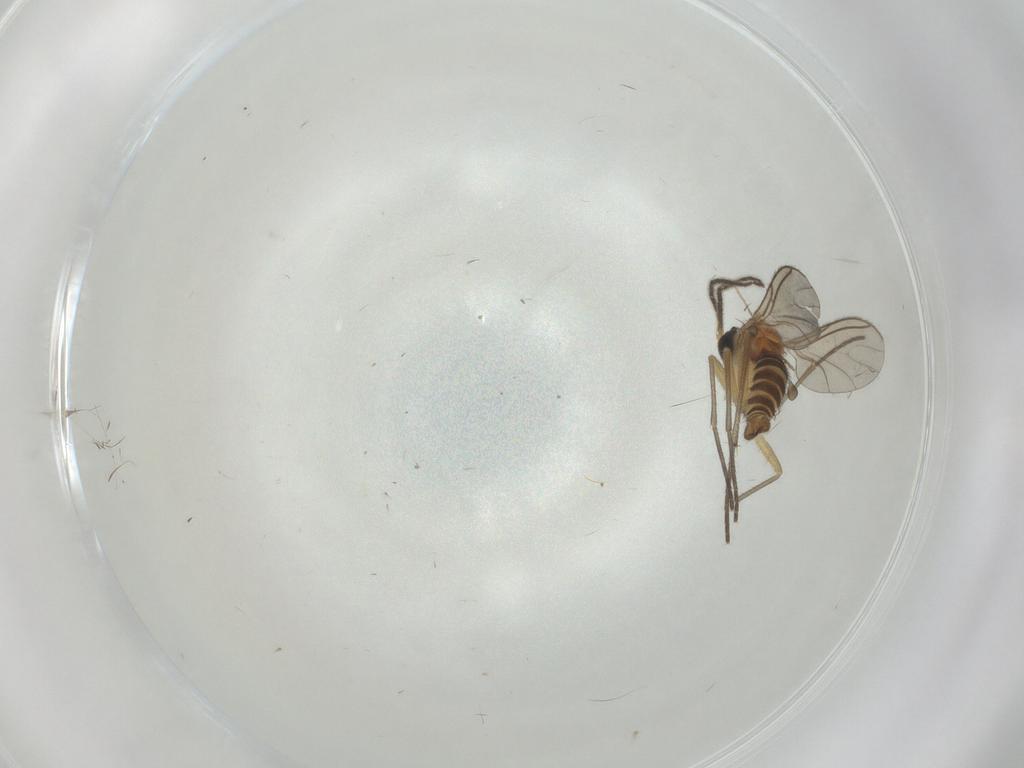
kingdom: Animalia
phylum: Arthropoda
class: Insecta
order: Diptera
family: Sciaridae
